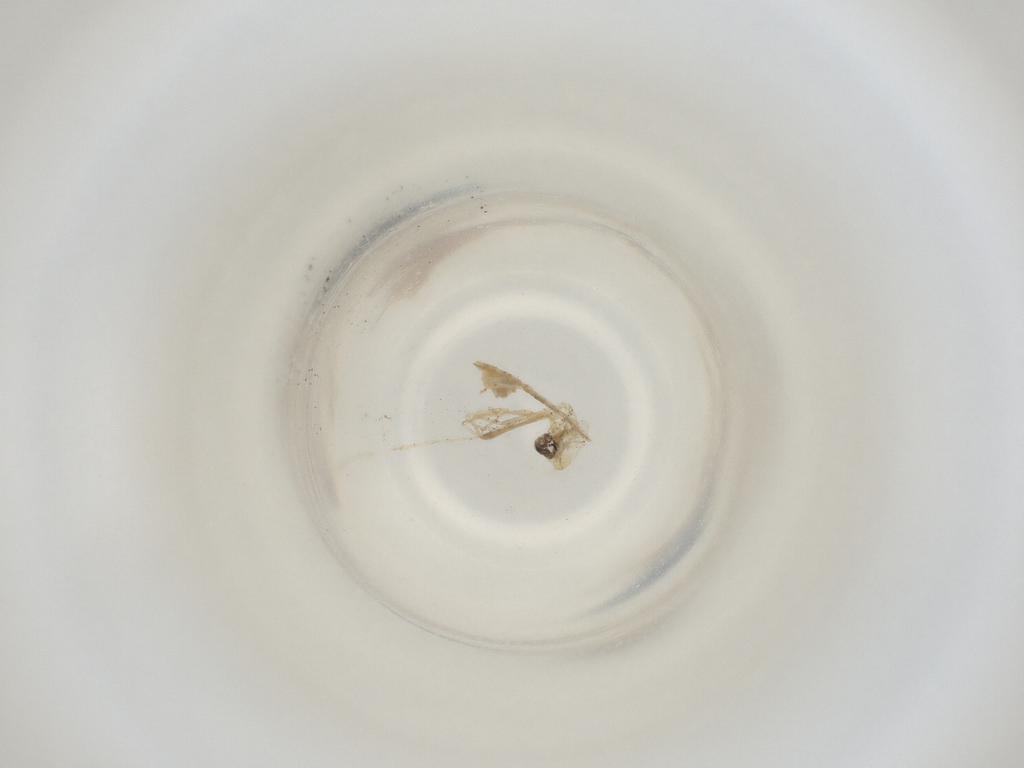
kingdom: Animalia
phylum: Arthropoda
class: Insecta
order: Diptera
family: Cecidomyiidae
